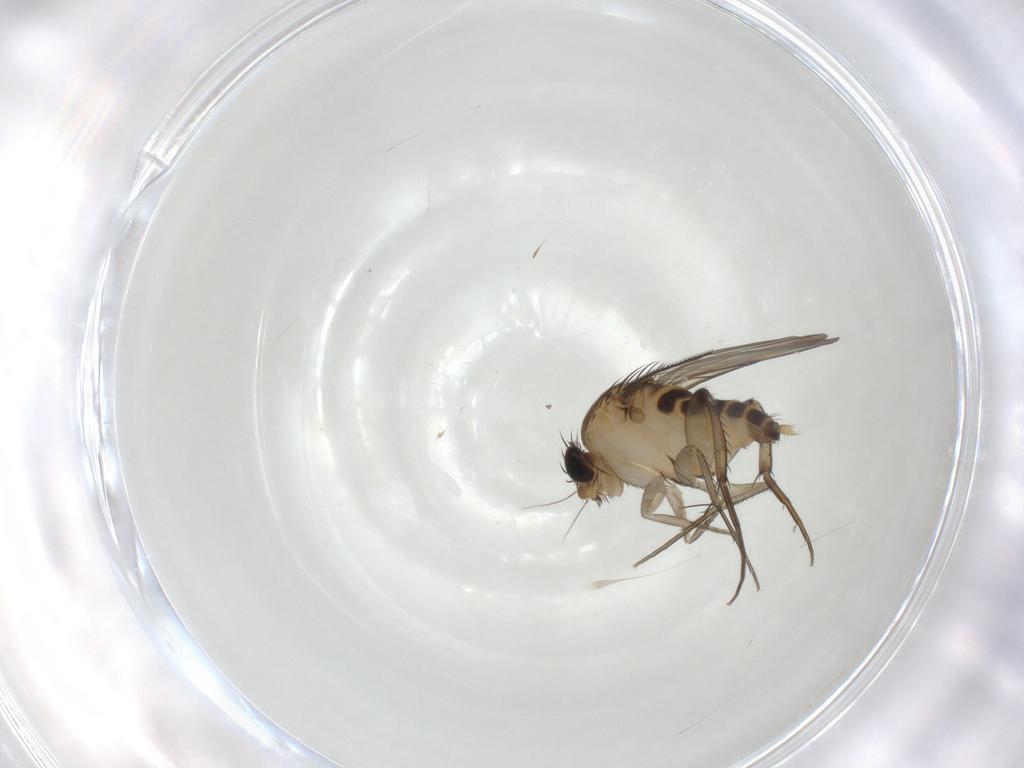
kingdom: Animalia
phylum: Arthropoda
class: Insecta
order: Diptera
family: Phoridae
